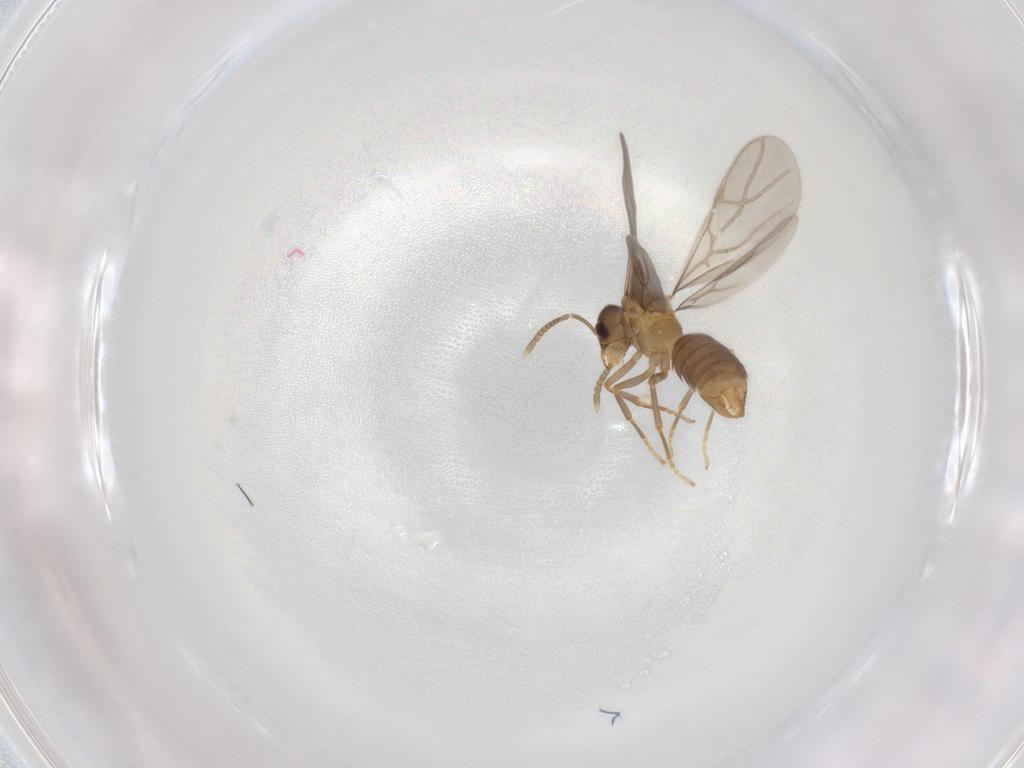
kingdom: Animalia
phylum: Arthropoda
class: Insecta
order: Hymenoptera
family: Formicidae
